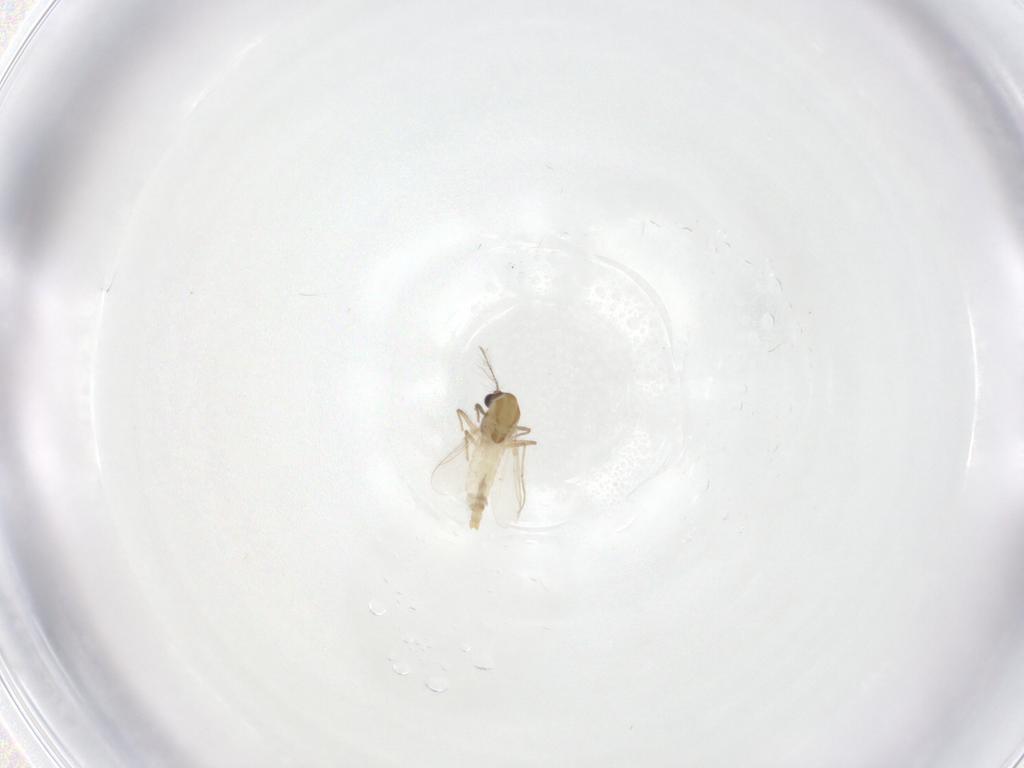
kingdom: Animalia
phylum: Arthropoda
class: Insecta
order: Diptera
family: Chironomidae
